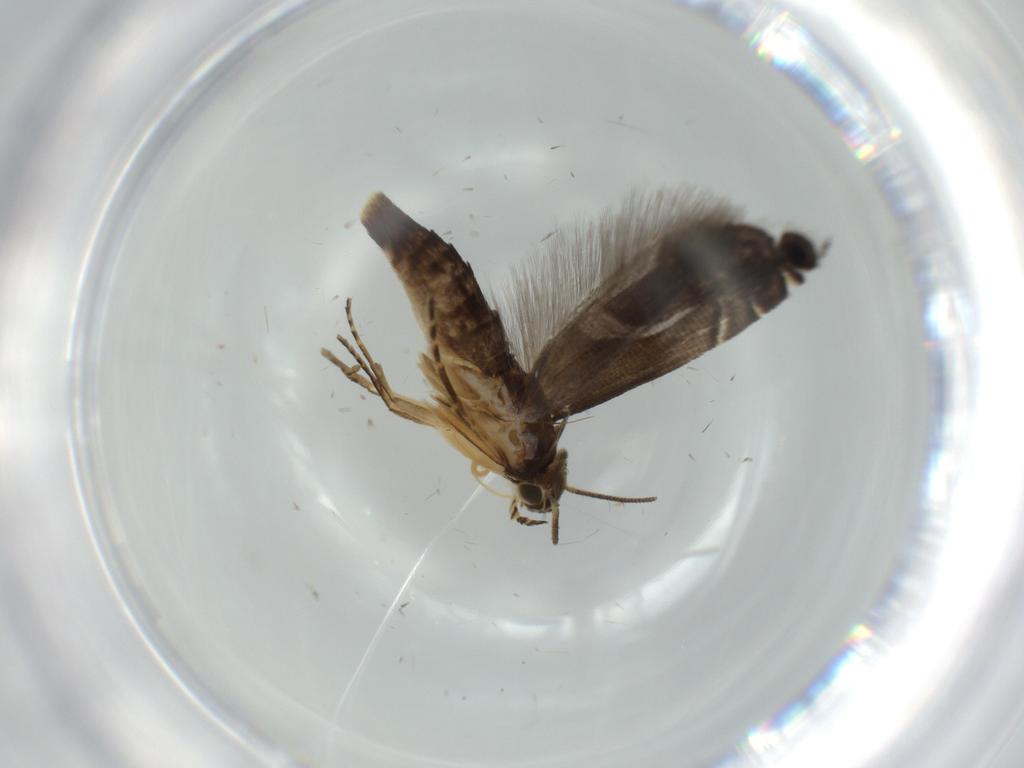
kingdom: Animalia
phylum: Arthropoda
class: Insecta
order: Lepidoptera
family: Glyphipterigidae
